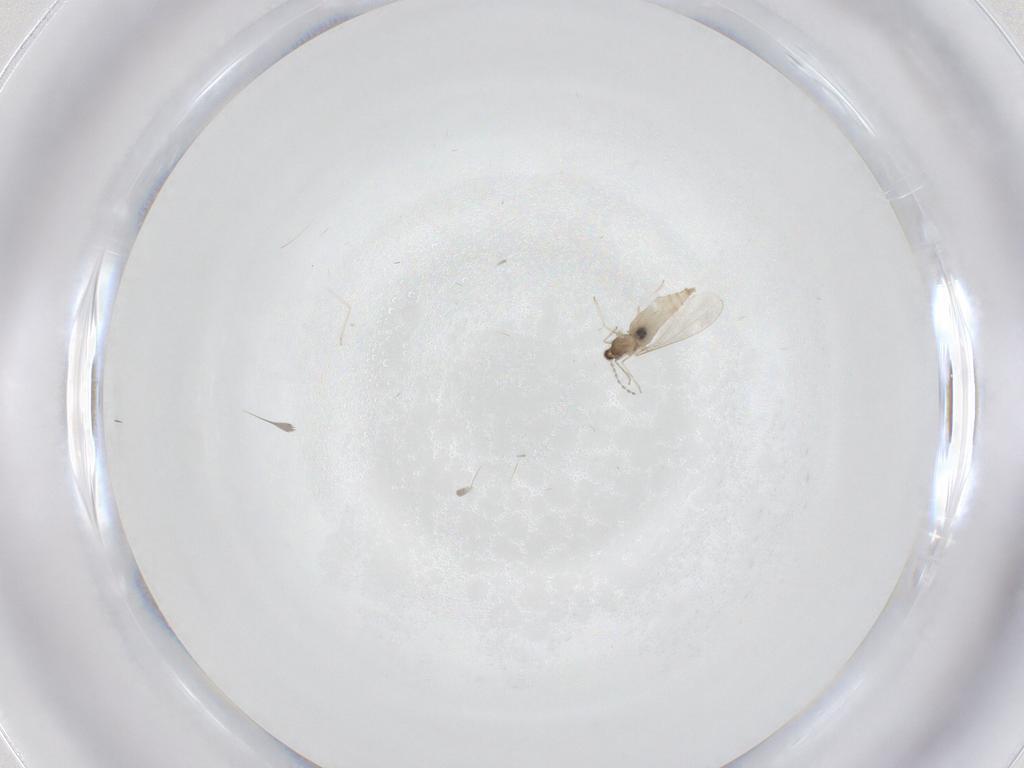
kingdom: Animalia
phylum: Arthropoda
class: Insecta
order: Diptera
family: Cecidomyiidae
